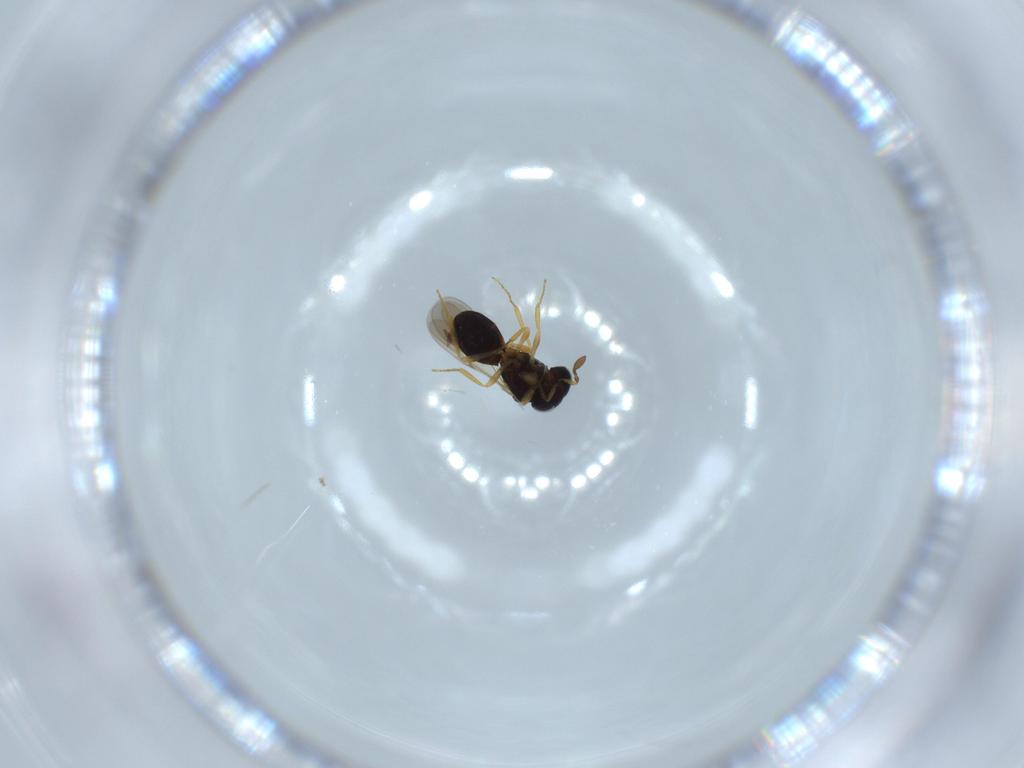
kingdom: Animalia
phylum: Arthropoda
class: Insecta
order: Hymenoptera
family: Scelionidae
